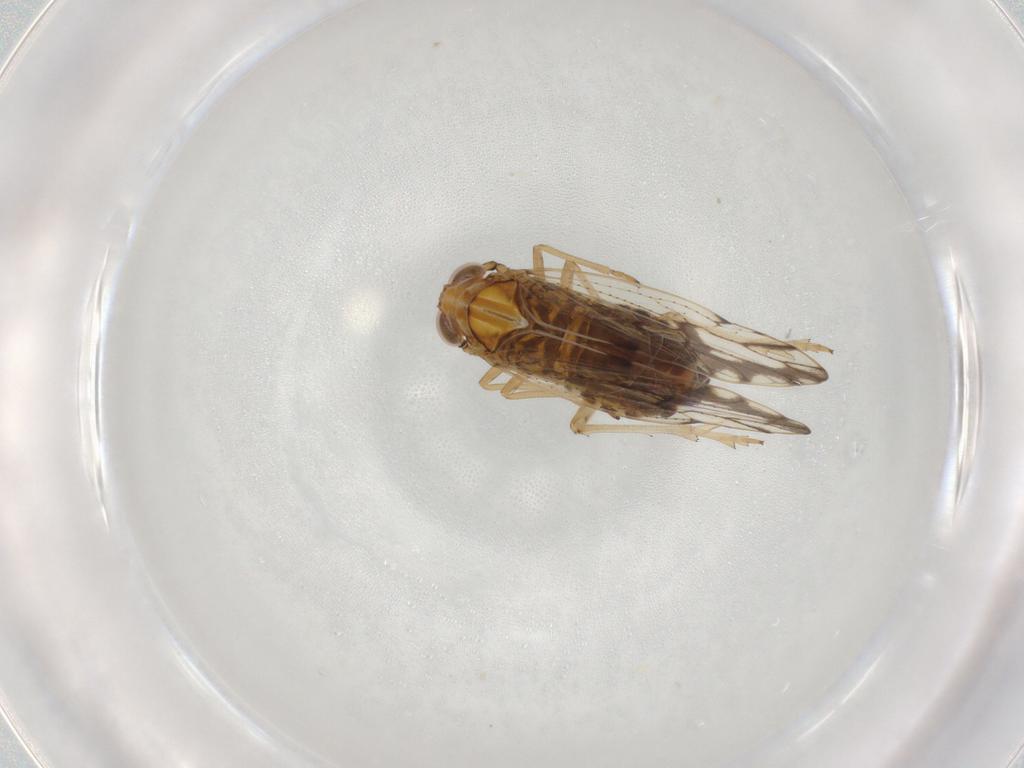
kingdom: Animalia
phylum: Arthropoda
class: Insecta
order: Hemiptera
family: Delphacidae
